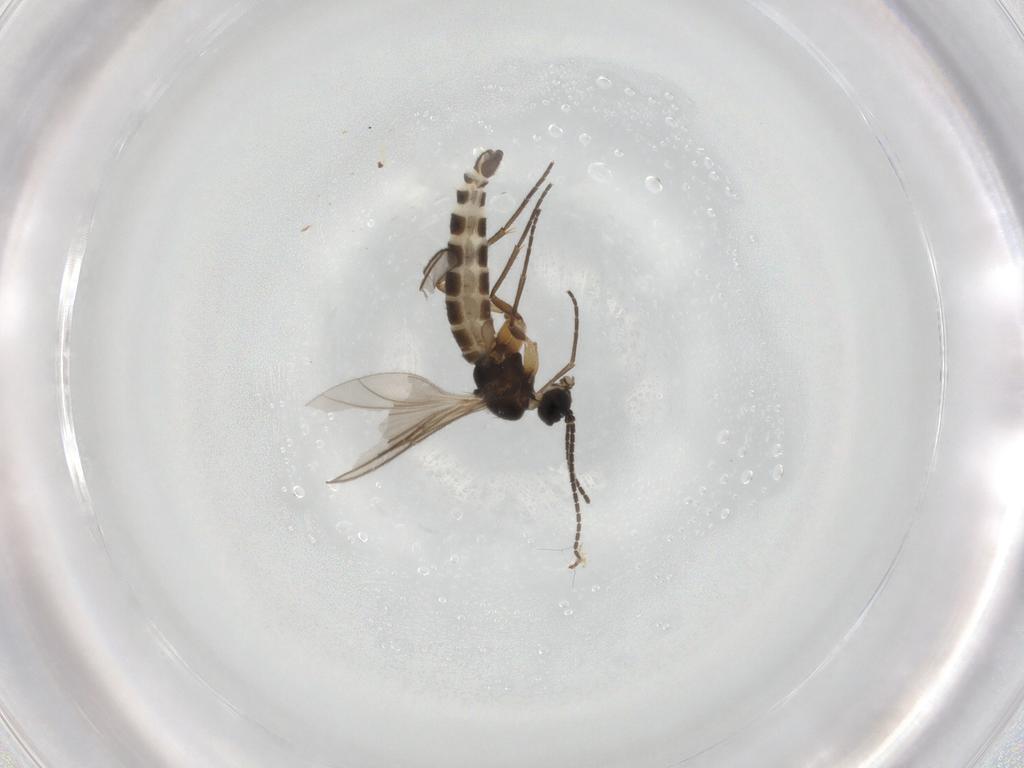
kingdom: Animalia
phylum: Arthropoda
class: Insecta
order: Diptera
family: Sciaridae
